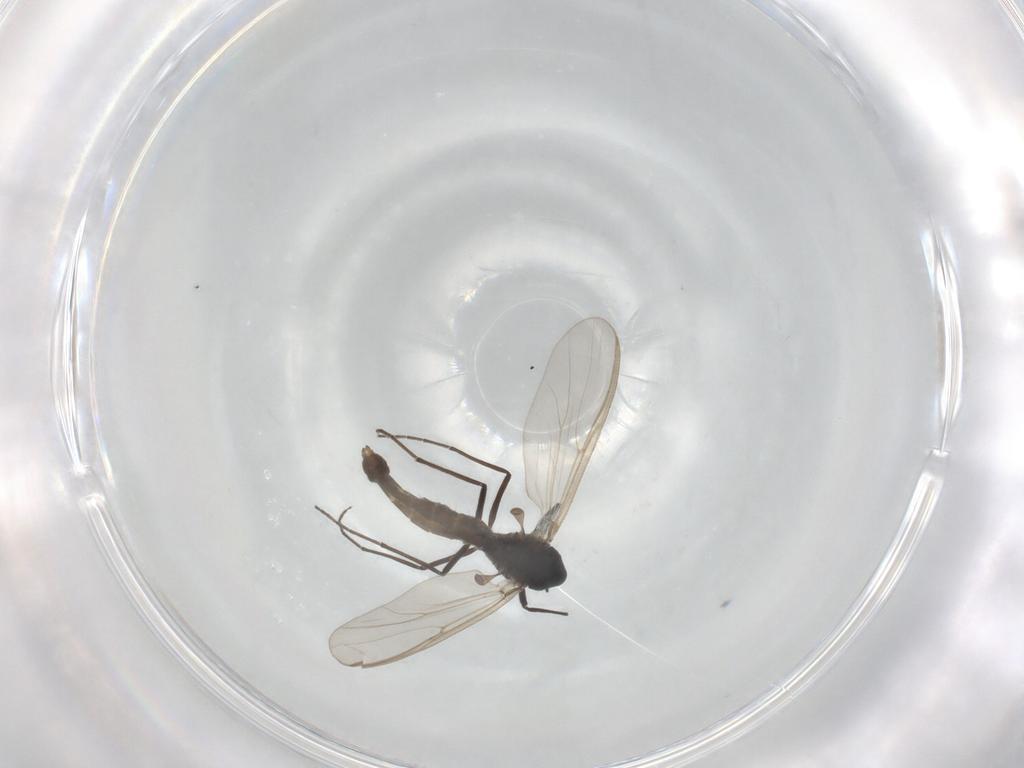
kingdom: Animalia
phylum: Arthropoda
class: Insecta
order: Diptera
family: Chironomidae
